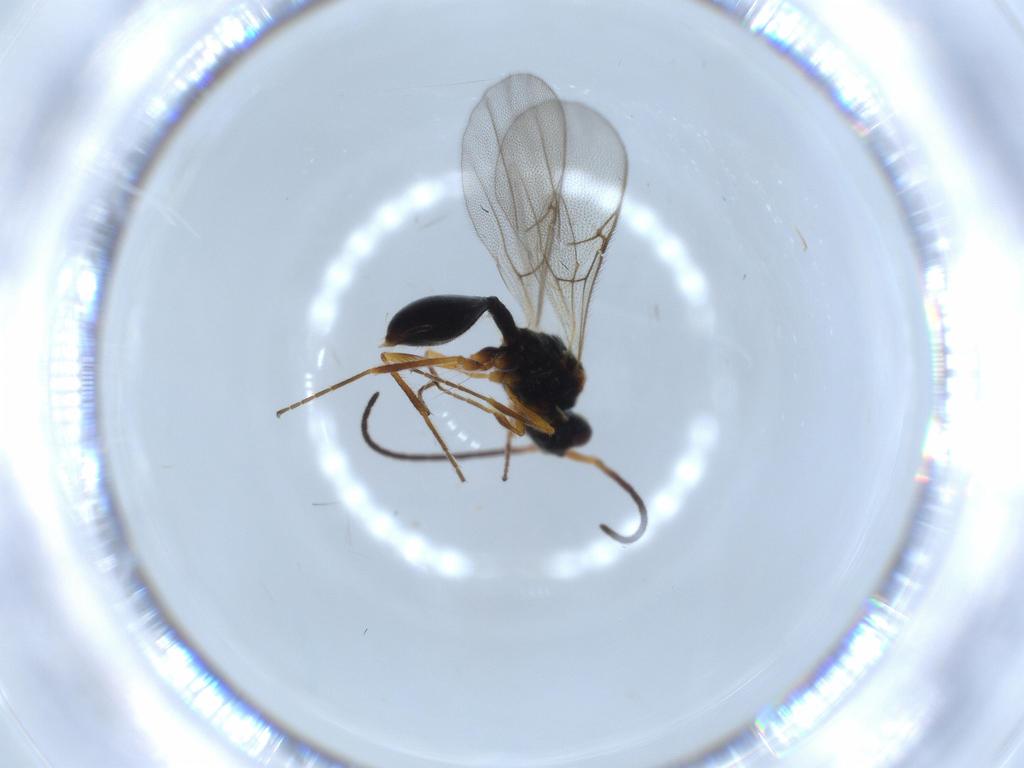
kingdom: Animalia
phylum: Arthropoda
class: Insecta
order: Hymenoptera
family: Diapriidae
